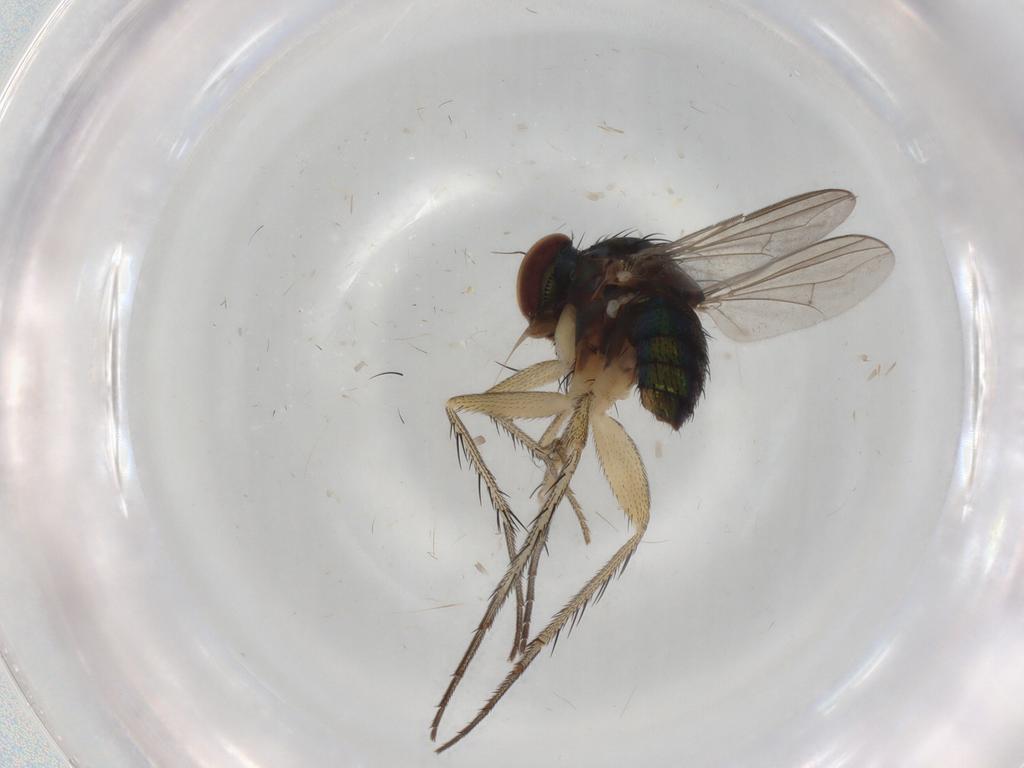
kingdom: Animalia
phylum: Arthropoda
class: Insecta
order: Diptera
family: Dolichopodidae
